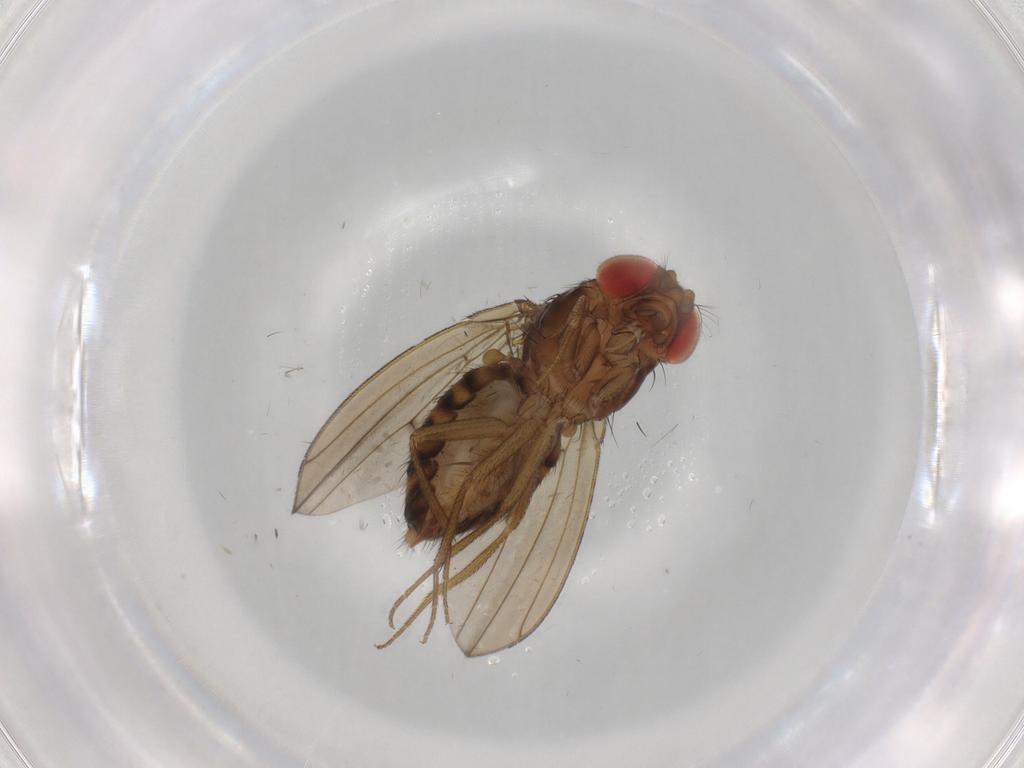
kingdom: Animalia
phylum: Arthropoda
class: Insecta
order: Diptera
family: Drosophilidae
